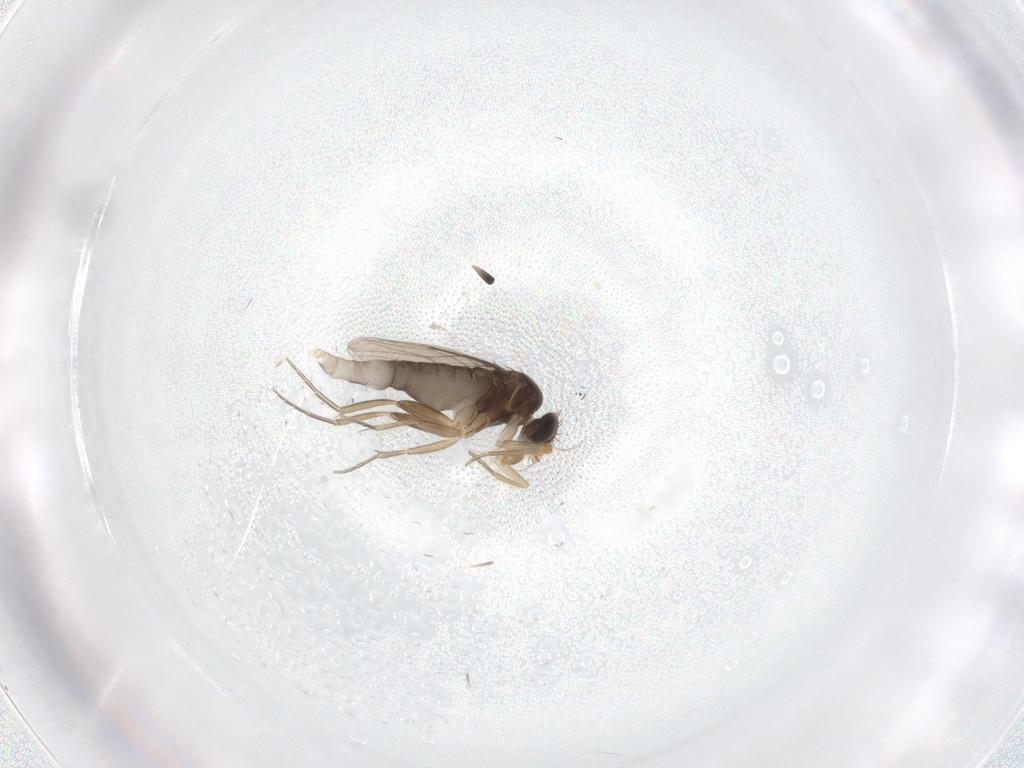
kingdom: Animalia
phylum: Arthropoda
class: Insecta
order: Diptera
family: Phoridae
